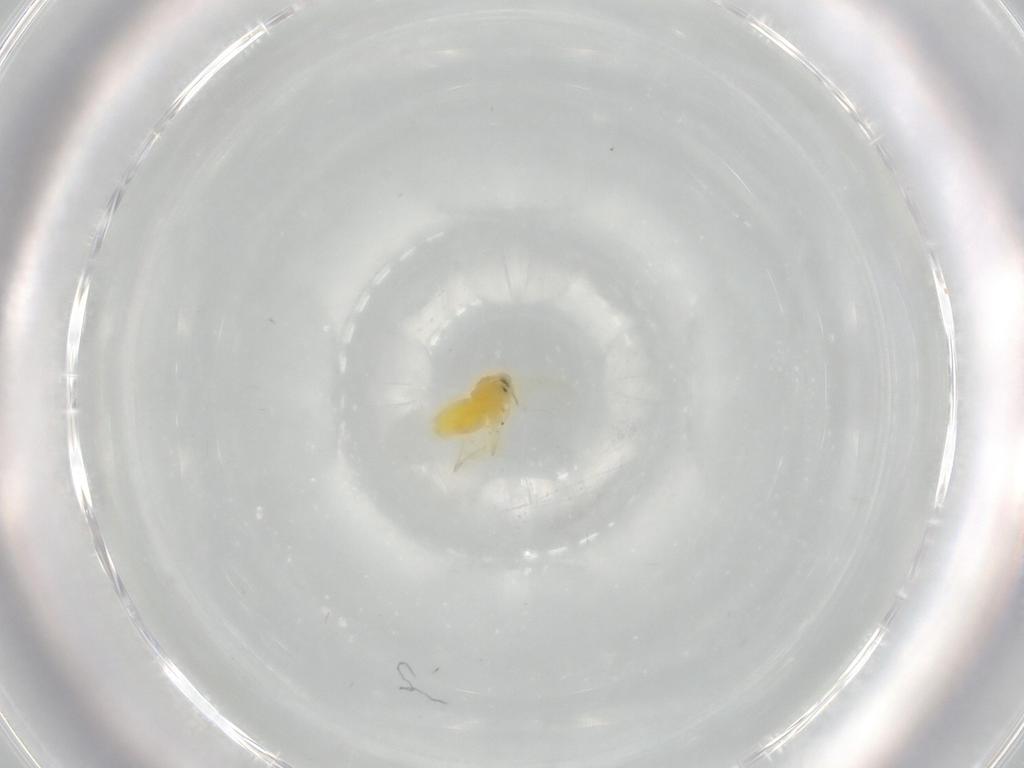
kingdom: Animalia
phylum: Arthropoda
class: Insecta
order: Hemiptera
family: Aleyrodidae
